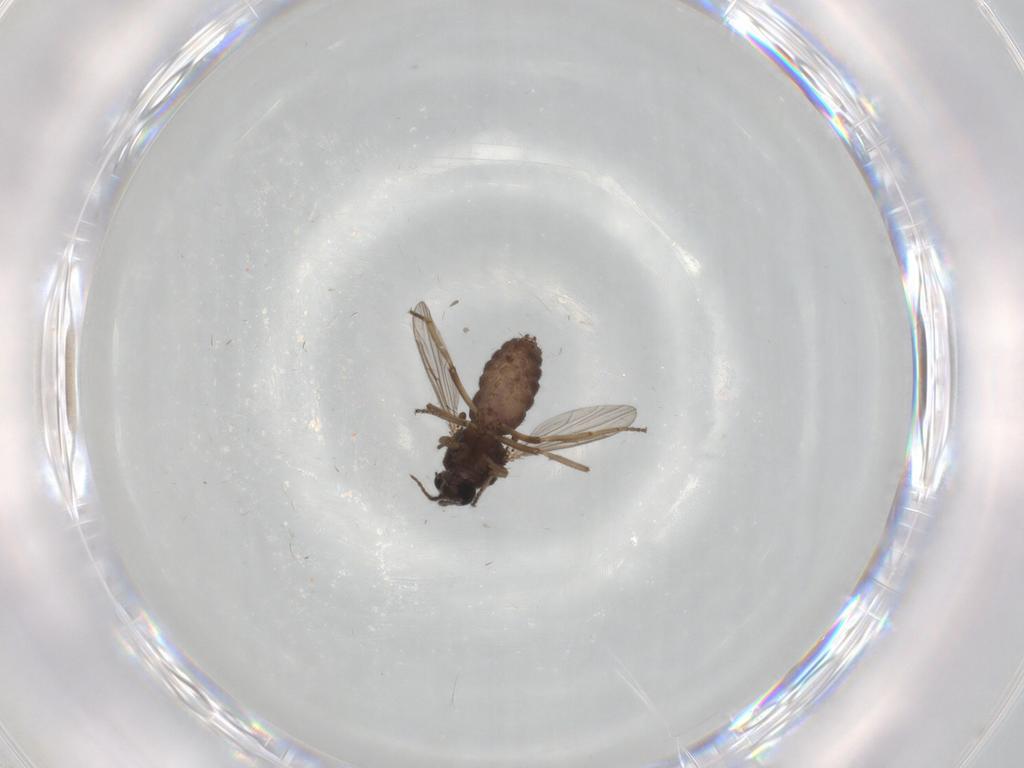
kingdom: Animalia
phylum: Arthropoda
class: Insecta
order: Diptera
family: Ceratopogonidae
